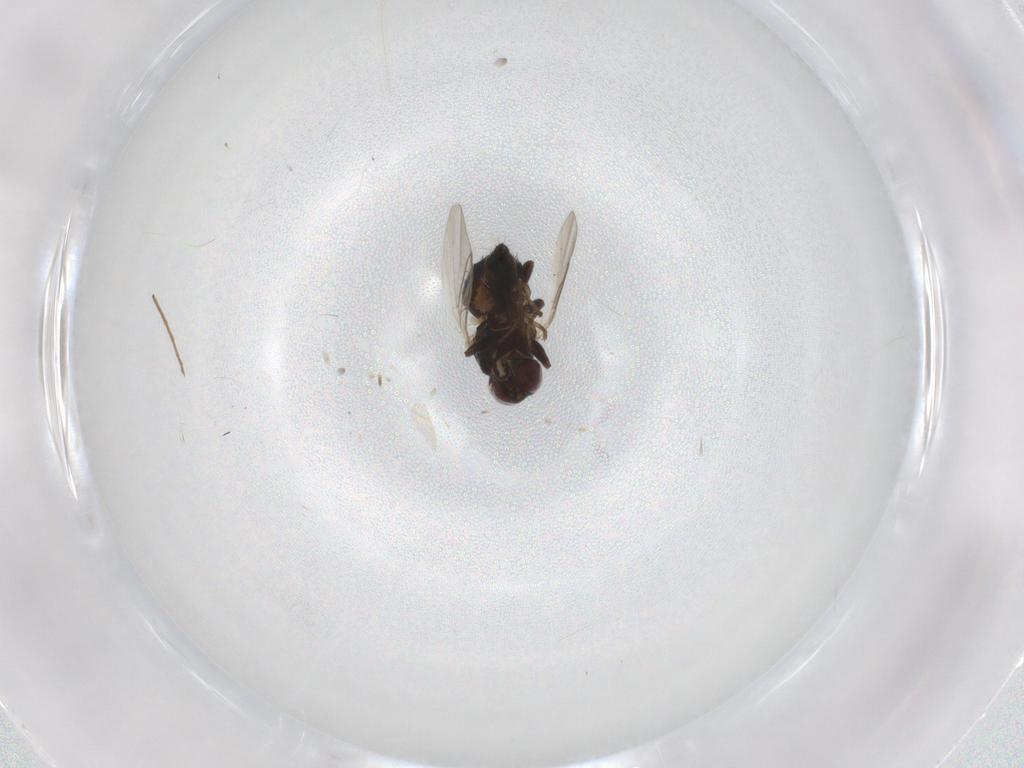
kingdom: Animalia
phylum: Arthropoda
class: Insecta
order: Diptera
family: Agromyzidae
